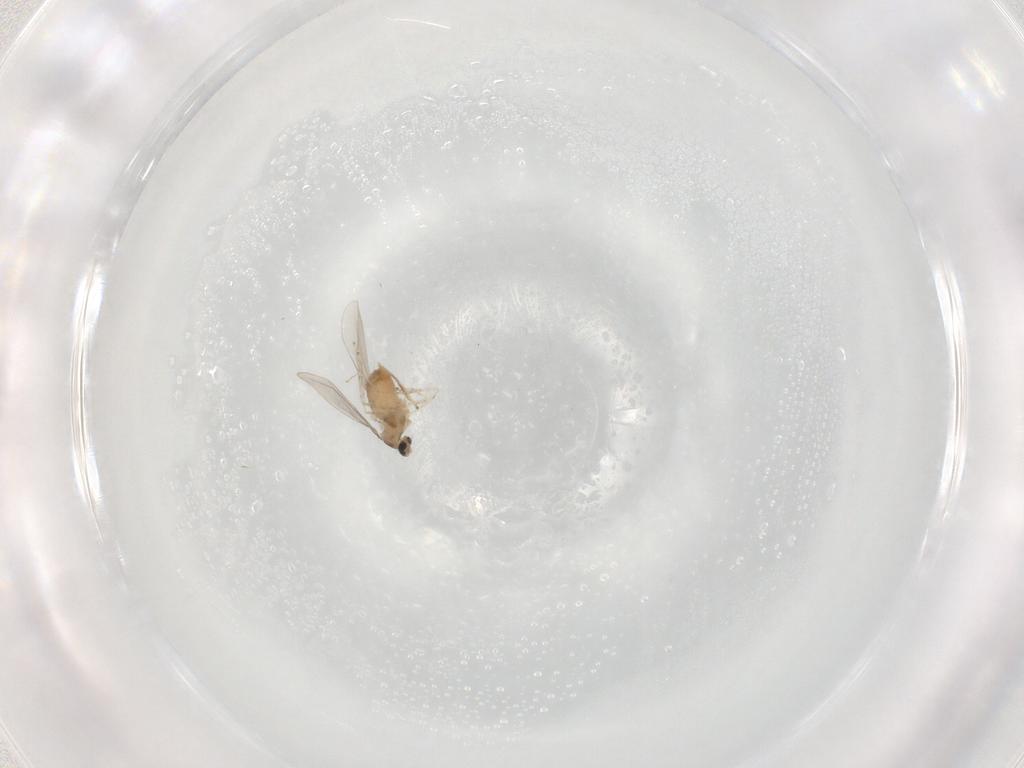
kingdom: Animalia
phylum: Arthropoda
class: Insecta
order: Diptera
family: Cecidomyiidae
